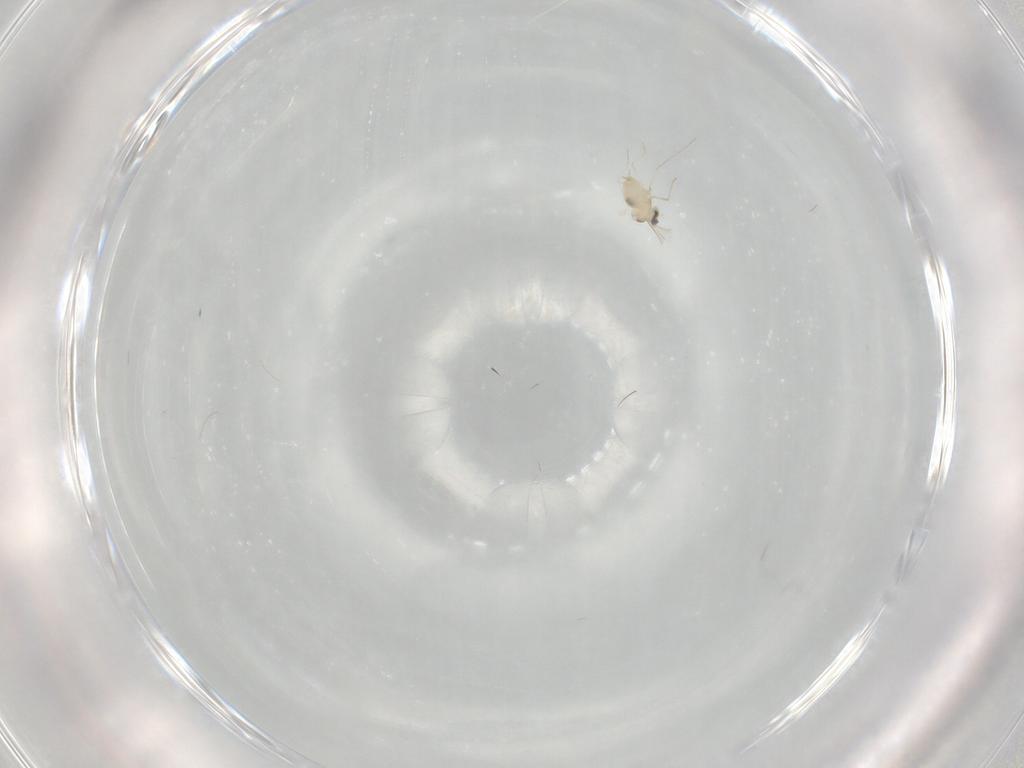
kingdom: Animalia
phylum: Arthropoda
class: Insecta
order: Diptera
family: Cecidomyiidae
